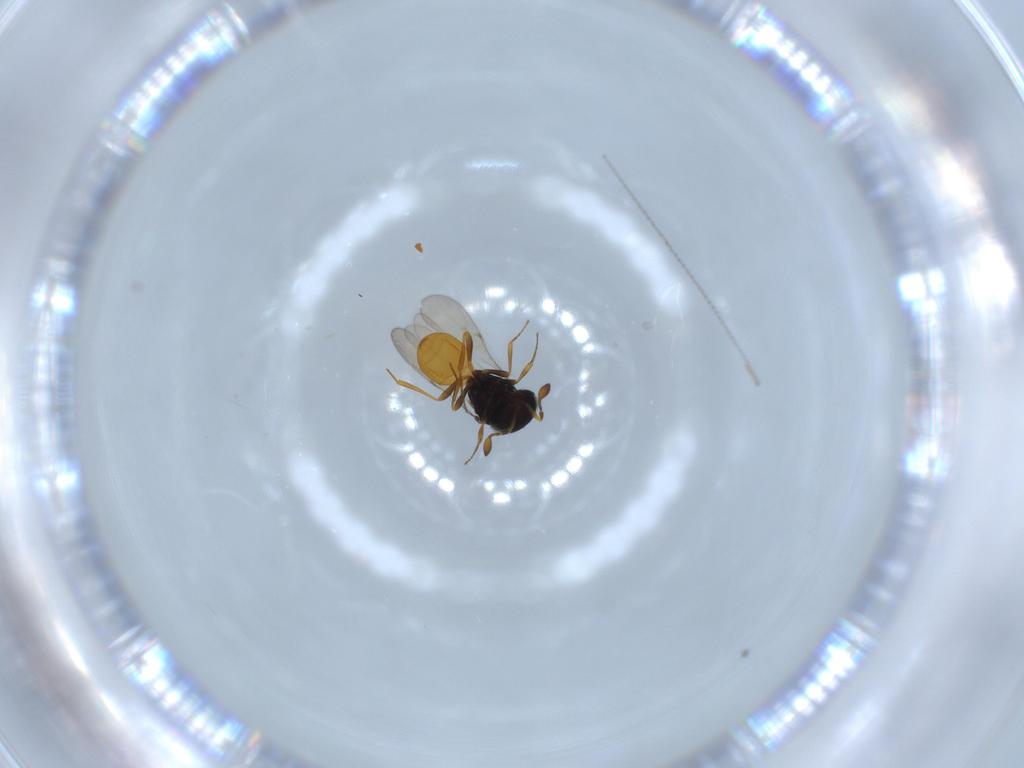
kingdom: Animalia
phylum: Arthropoda
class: Insecta
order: Hymenoptera
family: Scelionidae
